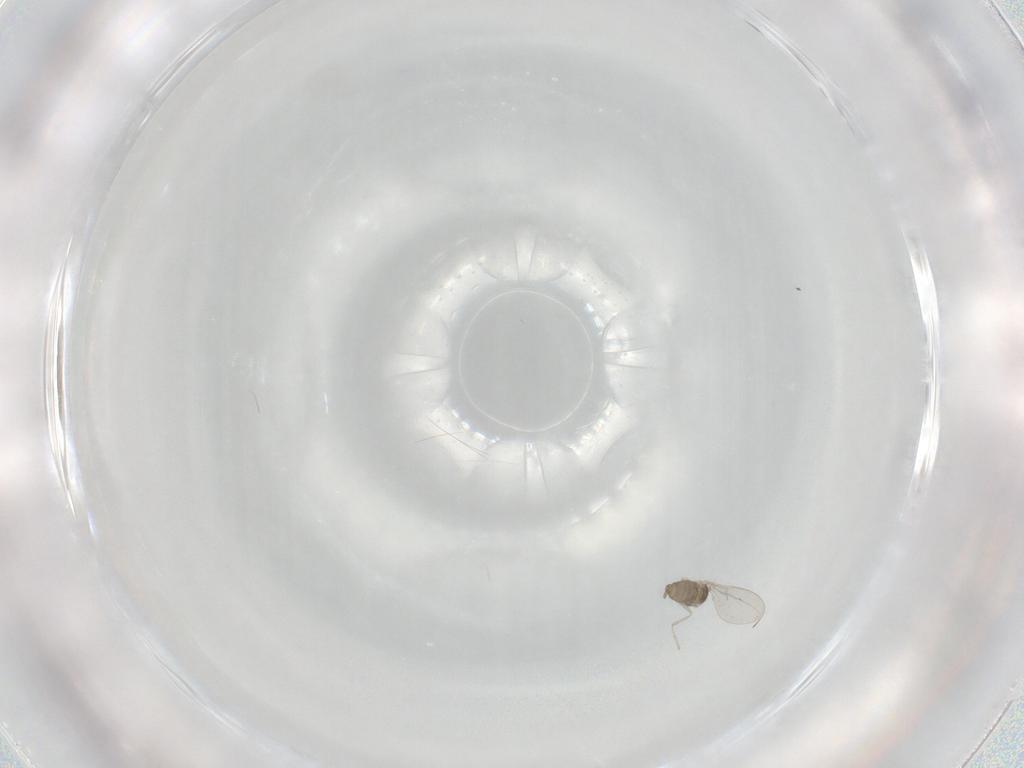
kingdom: Animalia
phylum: Arthropoda
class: Insecta
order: Diptera
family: Cecidomyiidae
